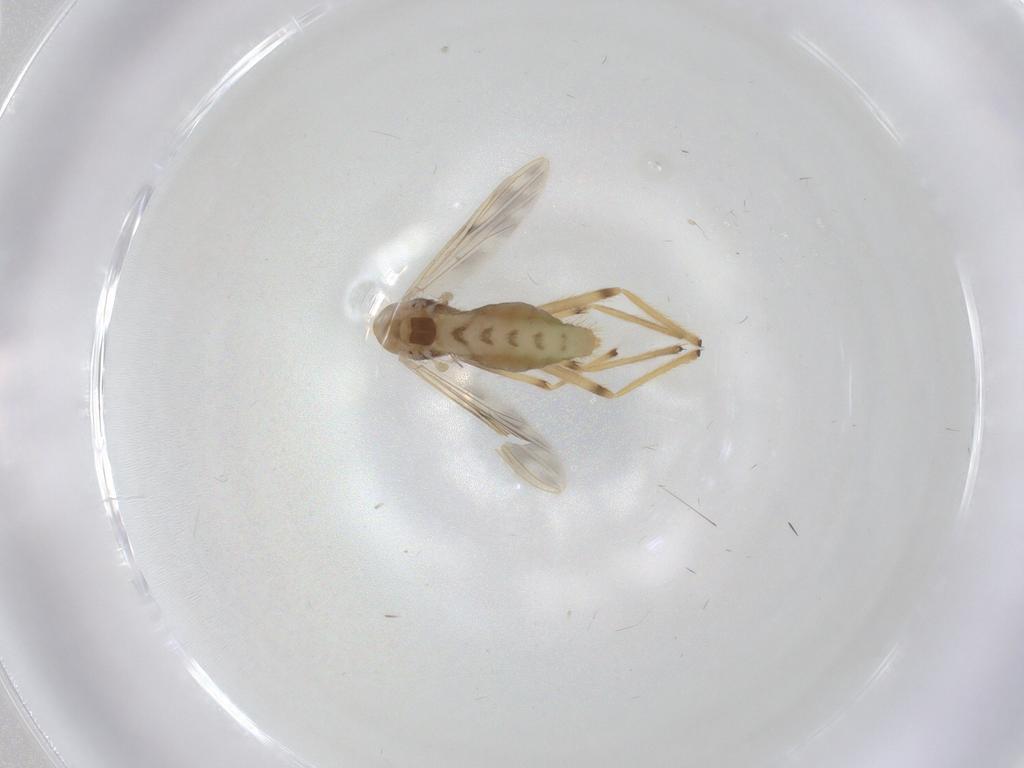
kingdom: Animalia
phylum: Arthropoda
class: Insecta
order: Diptera
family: Chironomidae
